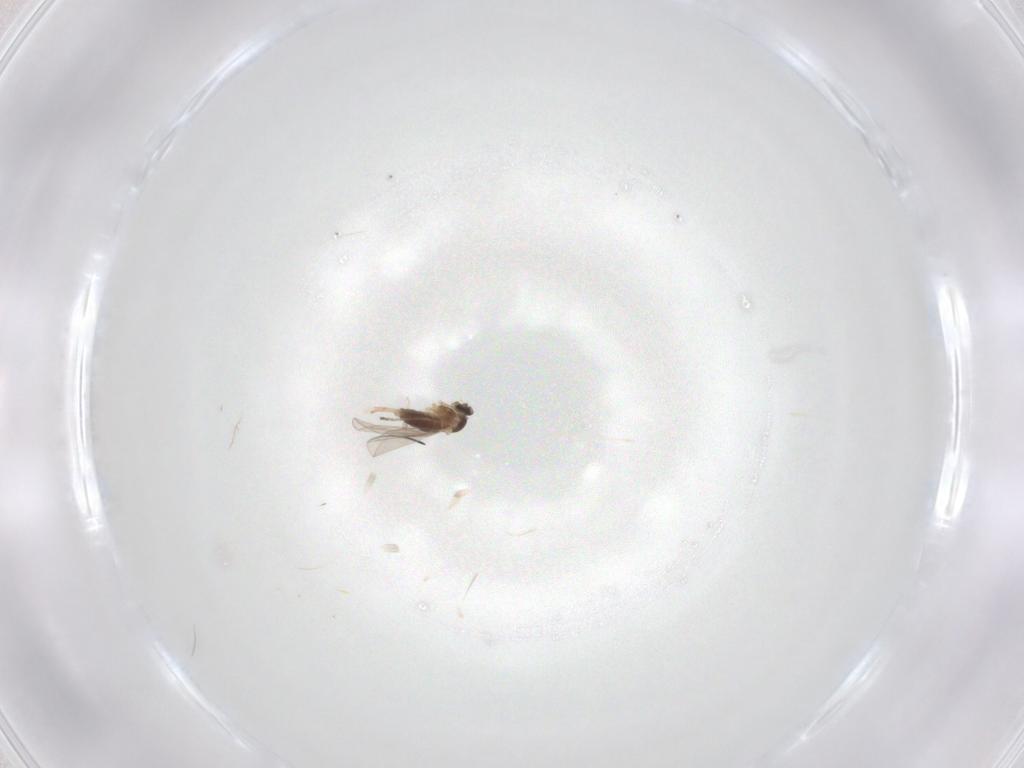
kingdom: Animalia
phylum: Arthropoda
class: Insecta
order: Diptera
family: Cecidomyiidae
